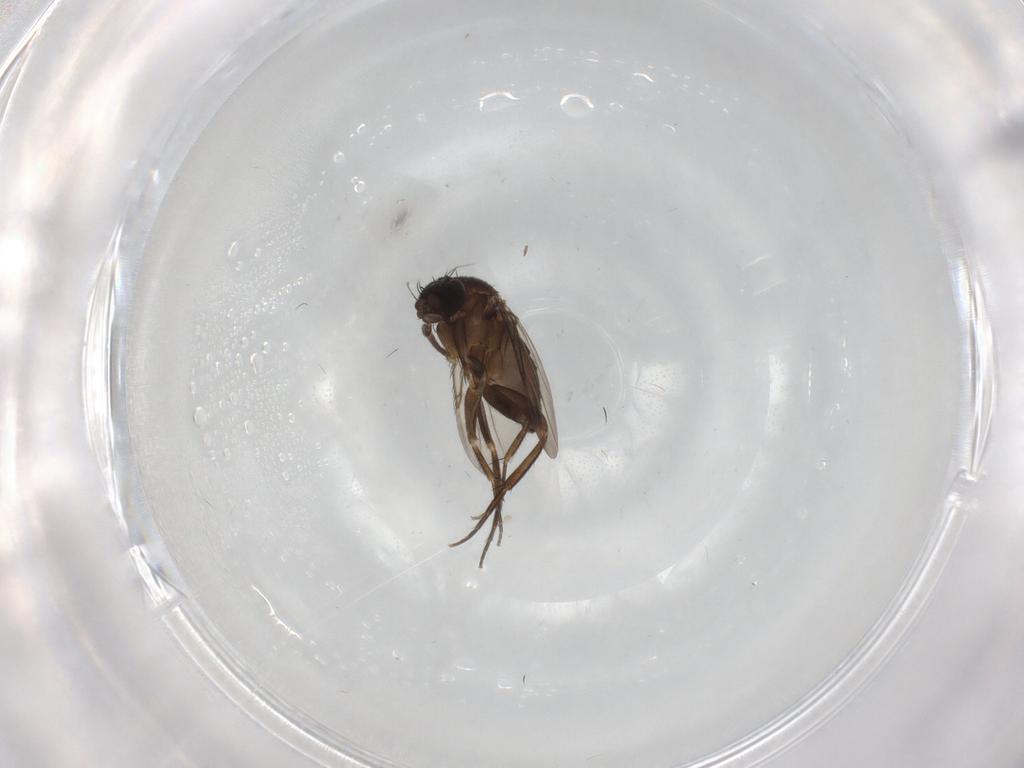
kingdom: Animalia
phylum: Arthropoda
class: Insecta
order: Diptera
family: Phoridae
